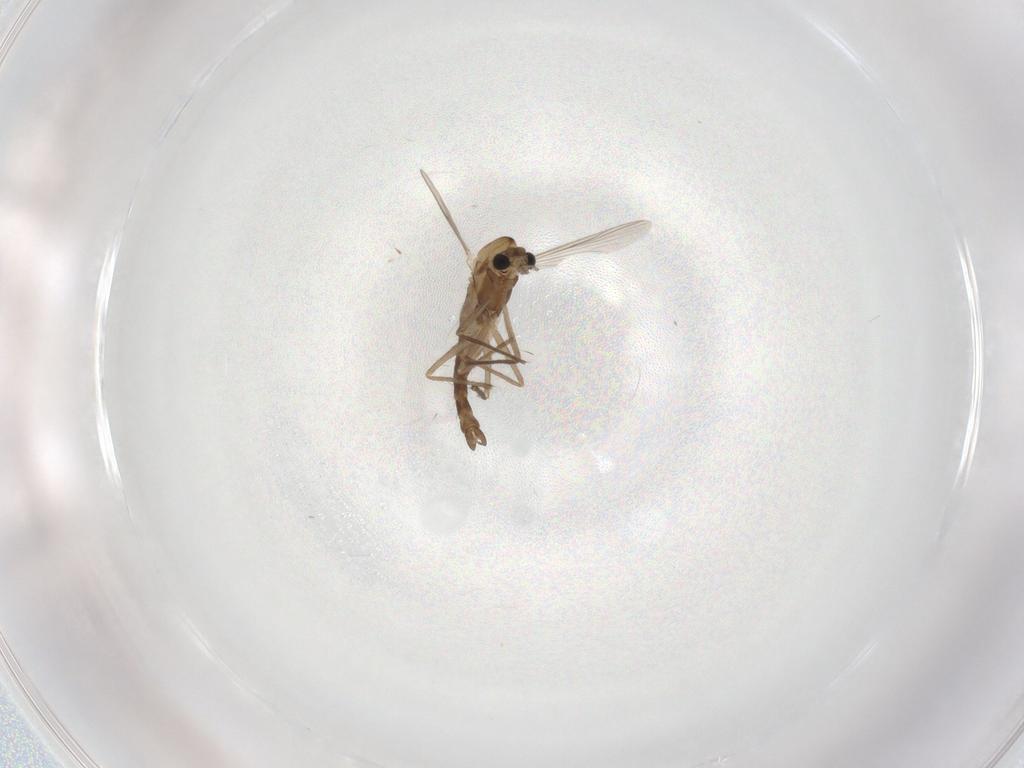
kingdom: Animalia
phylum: Arthropoda
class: Insecta
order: Diptera
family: Chironomidae
